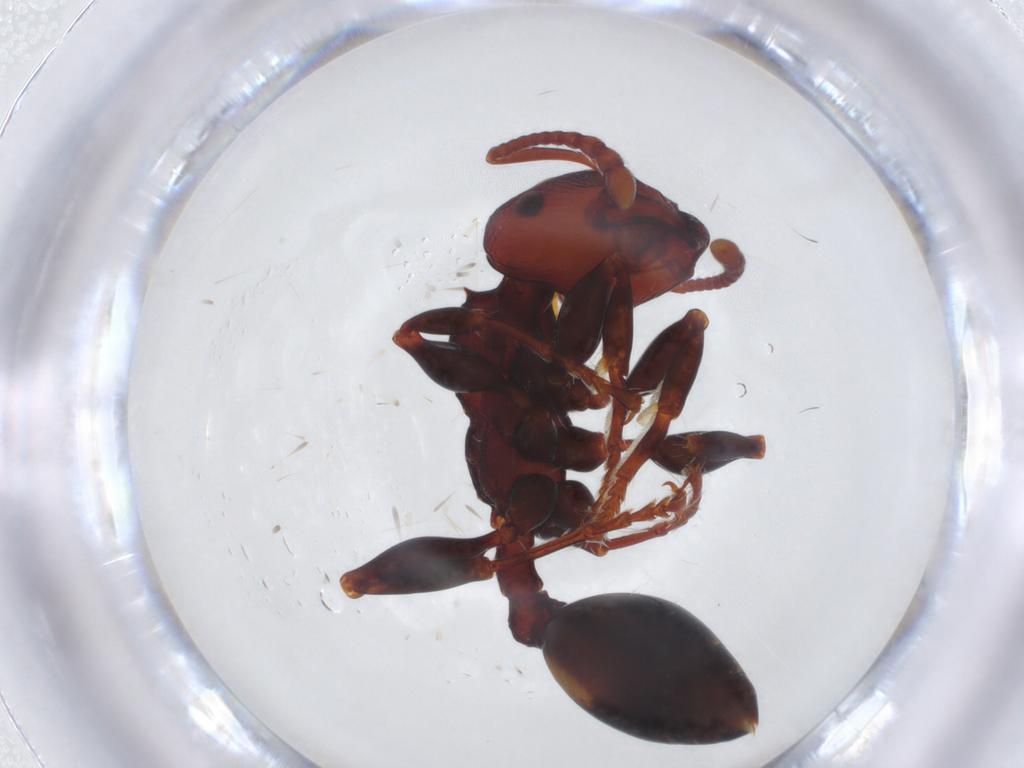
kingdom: Animalia
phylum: Arthropoda
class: Insecta
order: Hymenoptera
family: Formicidae
